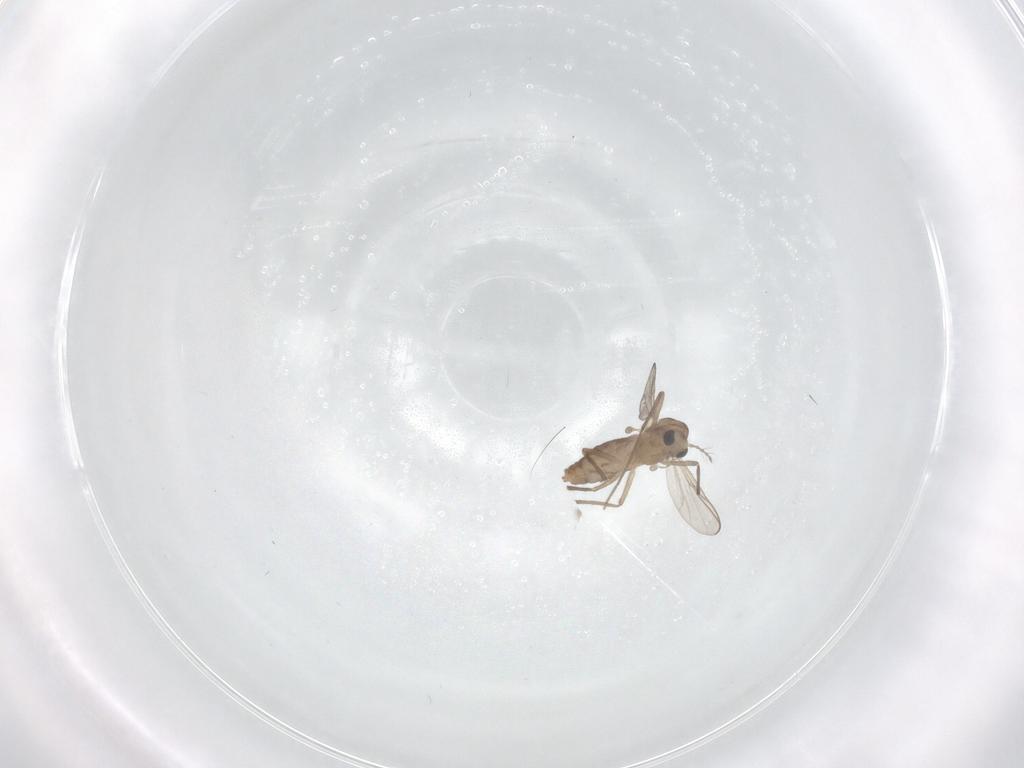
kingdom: Animalia
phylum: Arthropoda
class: Insecta
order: Diptera
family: Chironomidae
